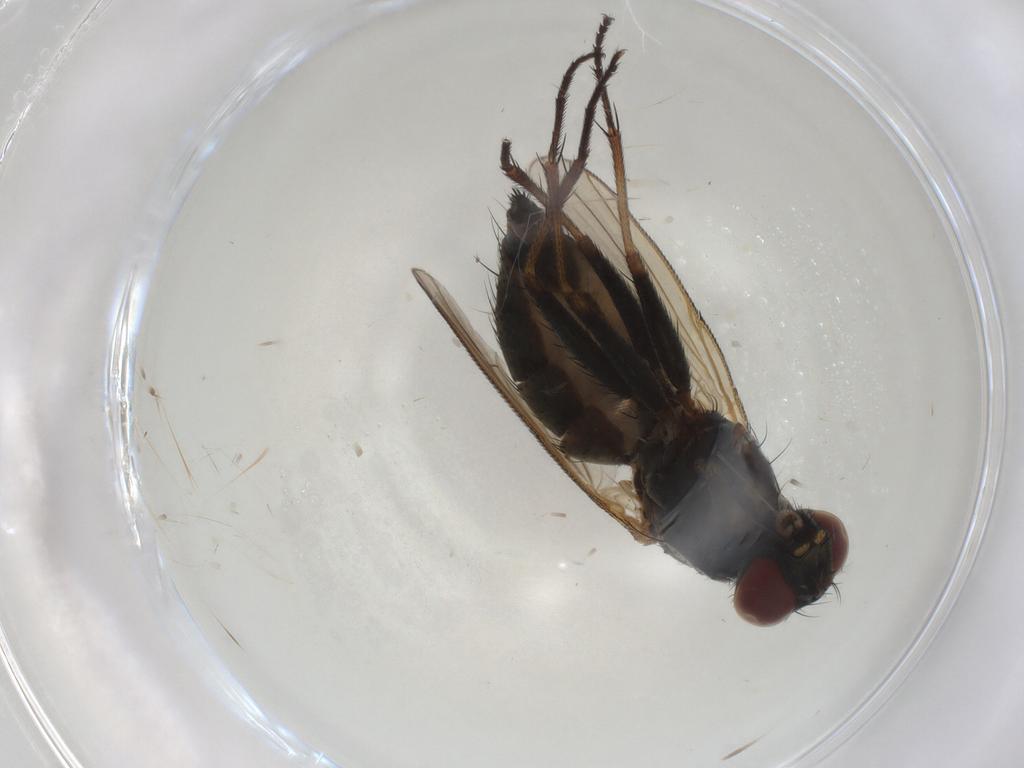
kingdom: Animalia
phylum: Arthropoda
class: Insecta
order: Diptera
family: Muscidae
